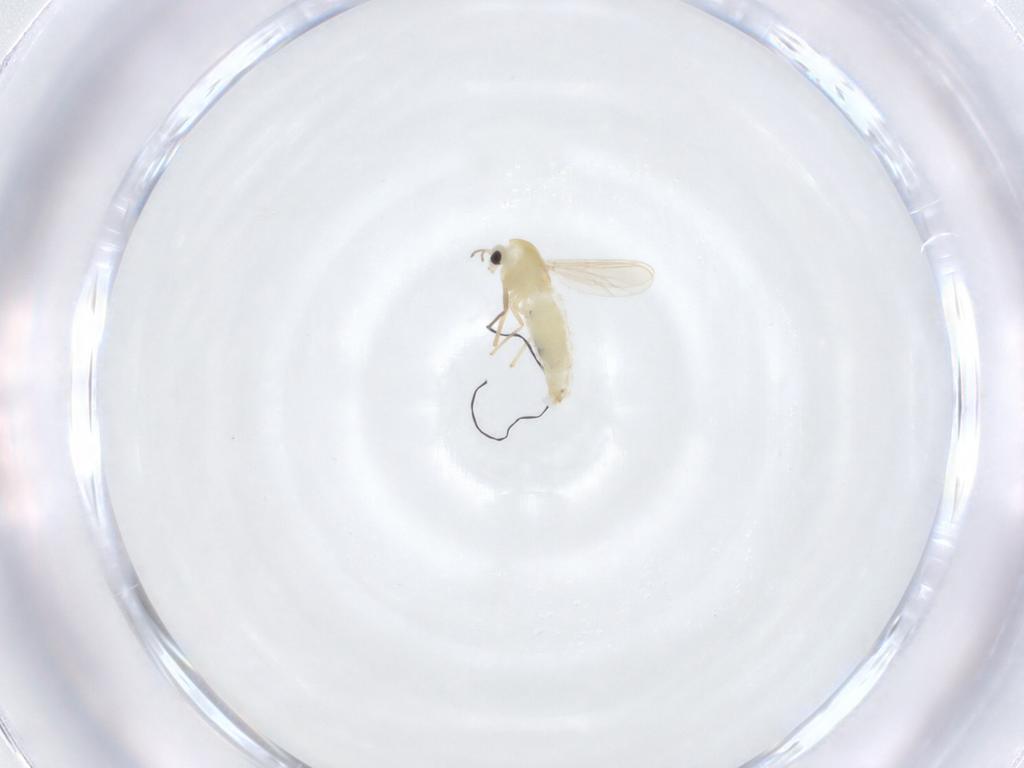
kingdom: Animalia
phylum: Arthropoda
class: Insecta
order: Diptera
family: Chironomidae
